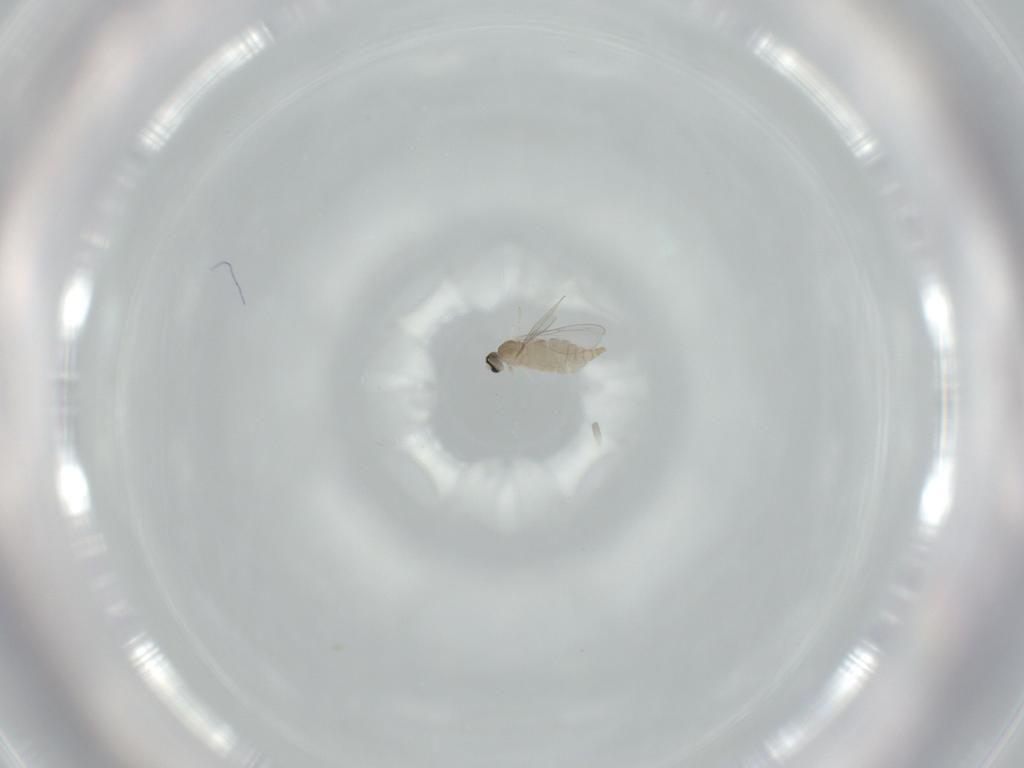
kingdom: Animalia
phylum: Arthropoda
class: Insecta
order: Diptera
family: Cecidomyiidae
